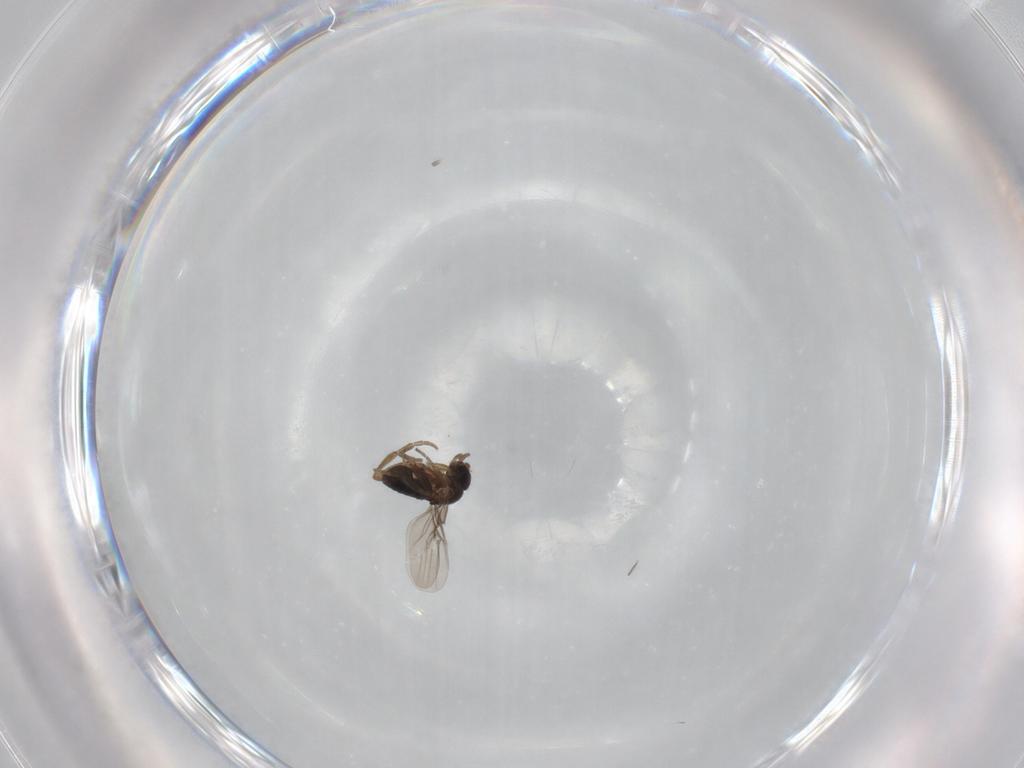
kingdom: Animalia
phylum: Arthropoda
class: Insecta
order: Diptera
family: Phoridae
